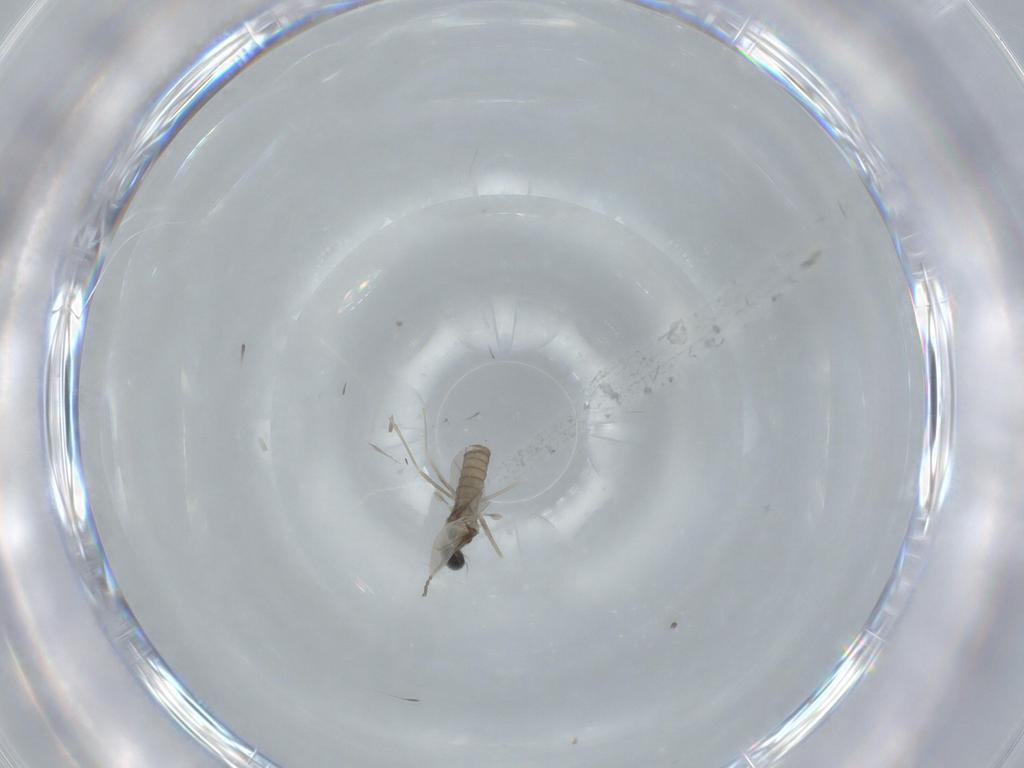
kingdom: Animalia
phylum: Arthropoda
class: Insecta
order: Diptera
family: Cecidomyiidae
